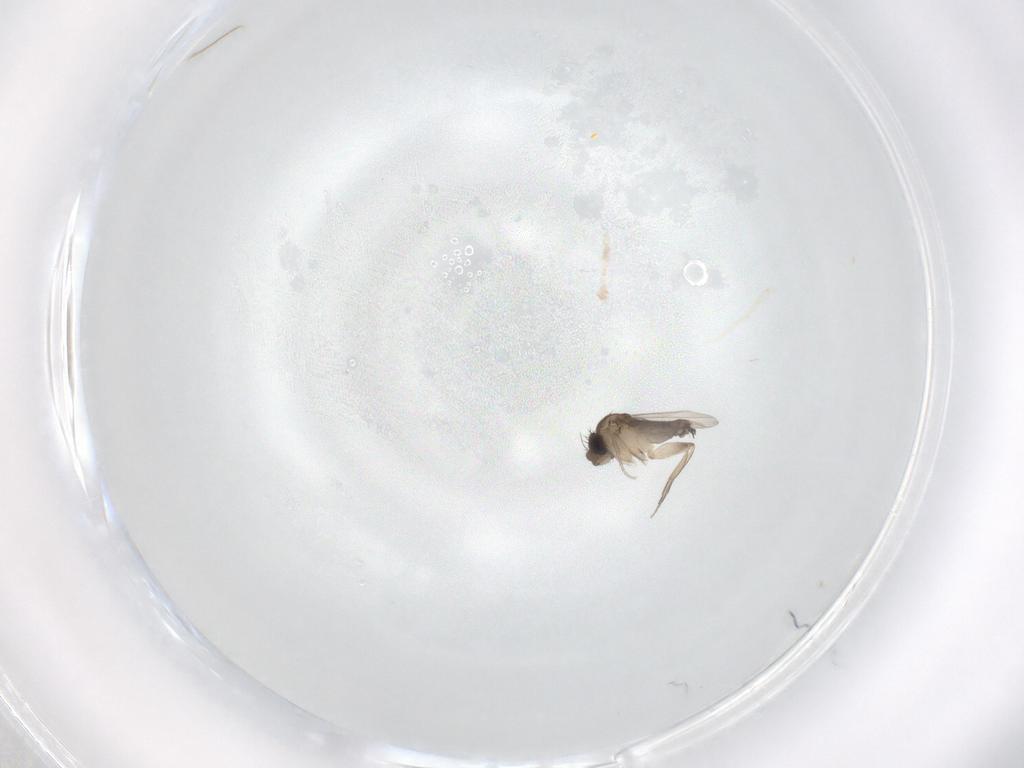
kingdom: Animalia
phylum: Arthropoda
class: Insecta
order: Diptera
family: Phoridae
